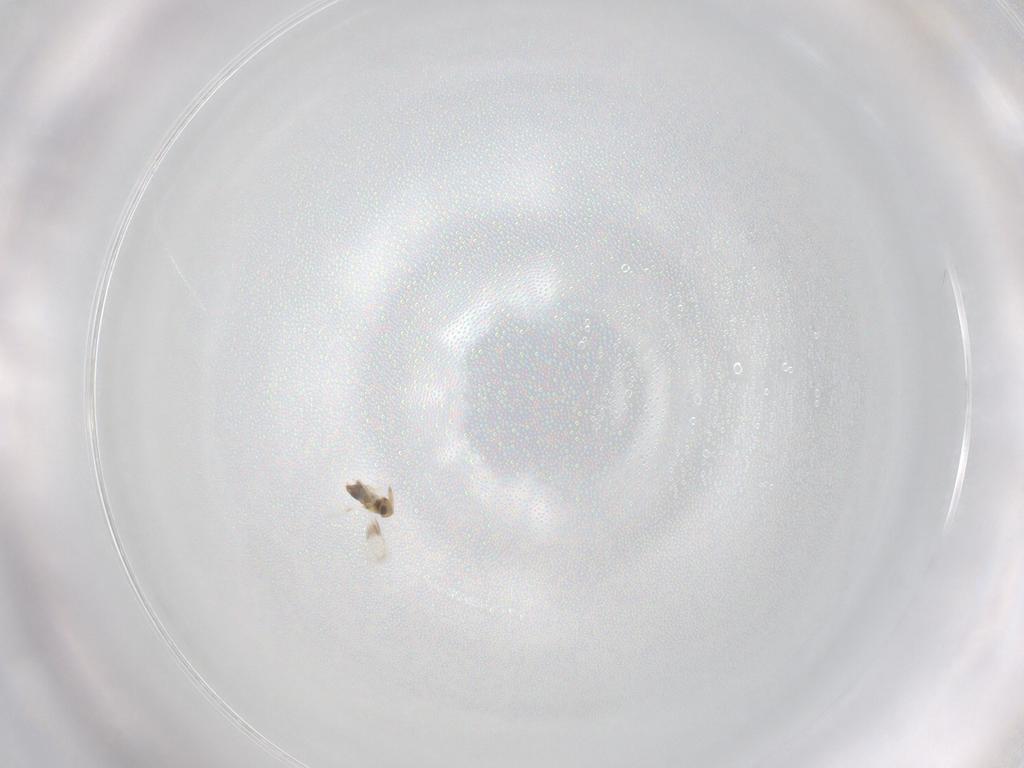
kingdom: Animalia
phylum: Arthropoda
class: Insecta
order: Hymenoptera
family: Aphelinidae
